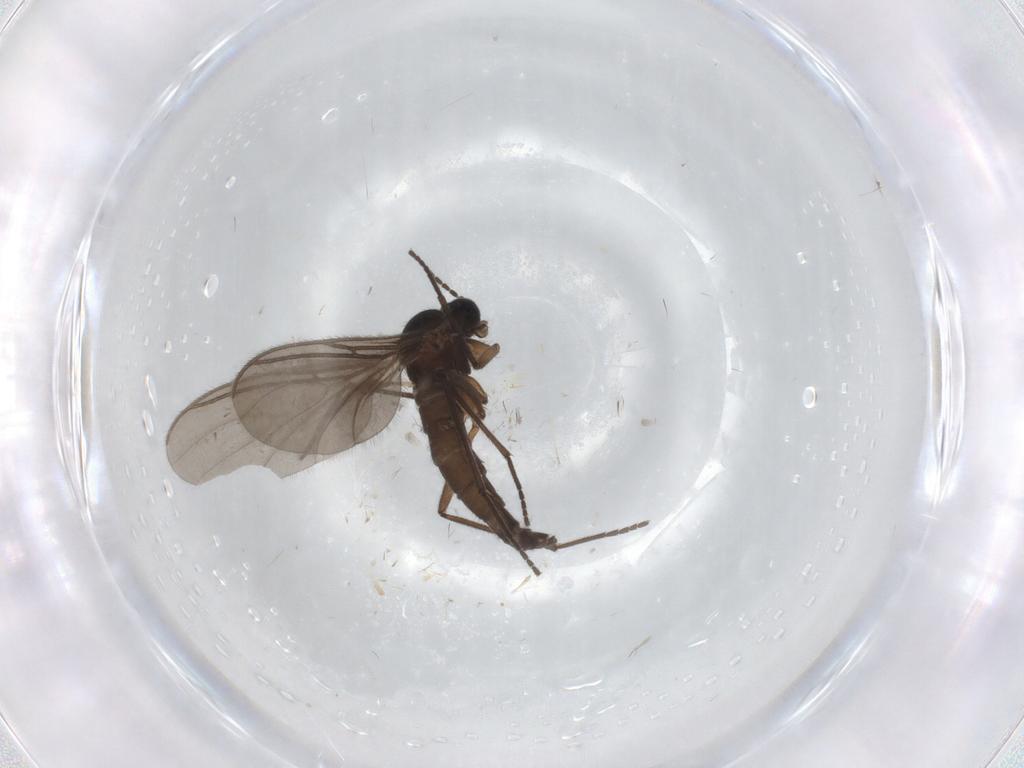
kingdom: Animalia
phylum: Arthropoda
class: Insecta
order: Diptera
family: Sciaridae
